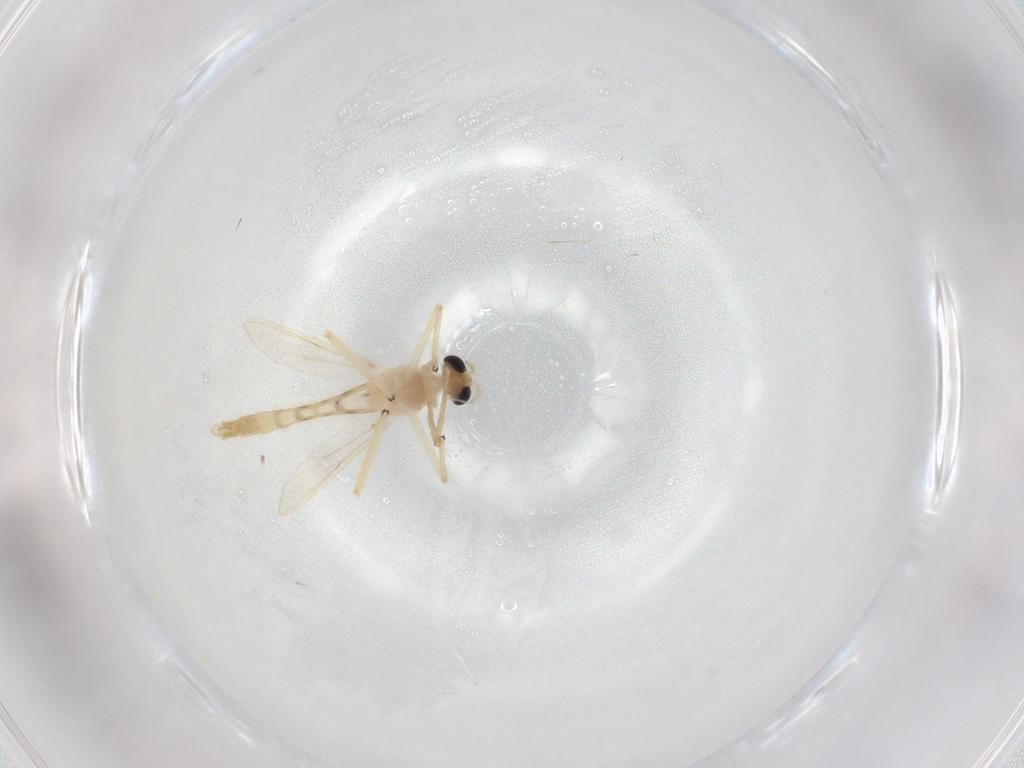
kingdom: Animalia
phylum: Arthropoda
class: Insecta
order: Diptera
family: Chironomidae
